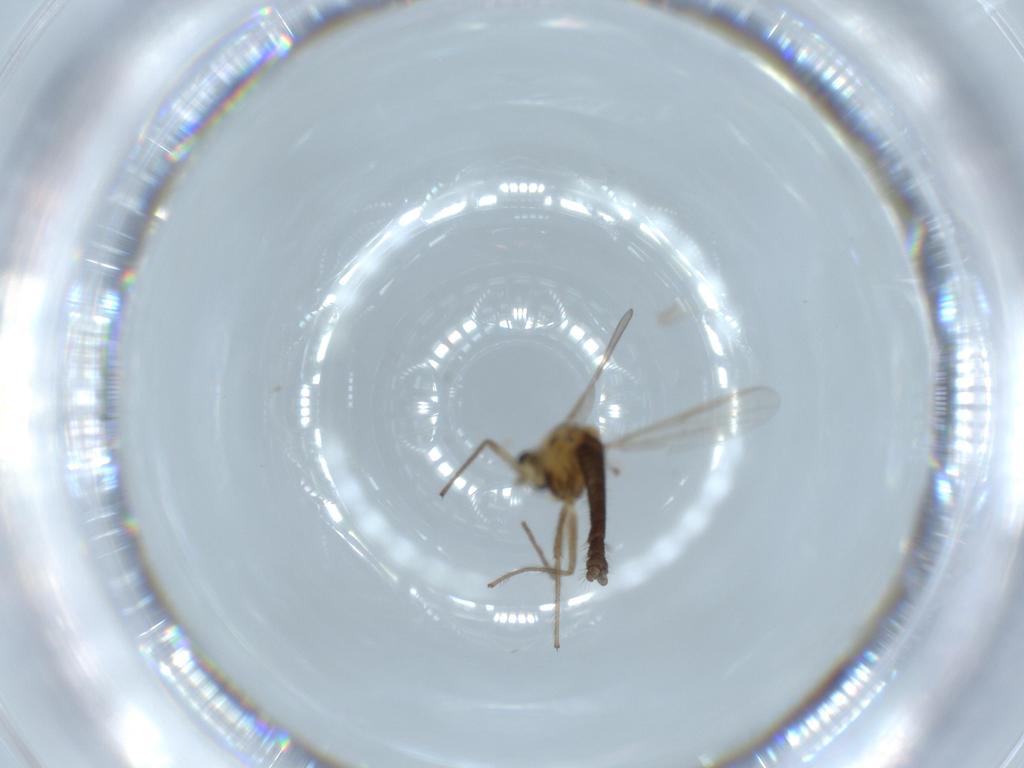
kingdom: Animalia
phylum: Arthropoda
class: Insecta
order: Diptera
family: Chironomidae
